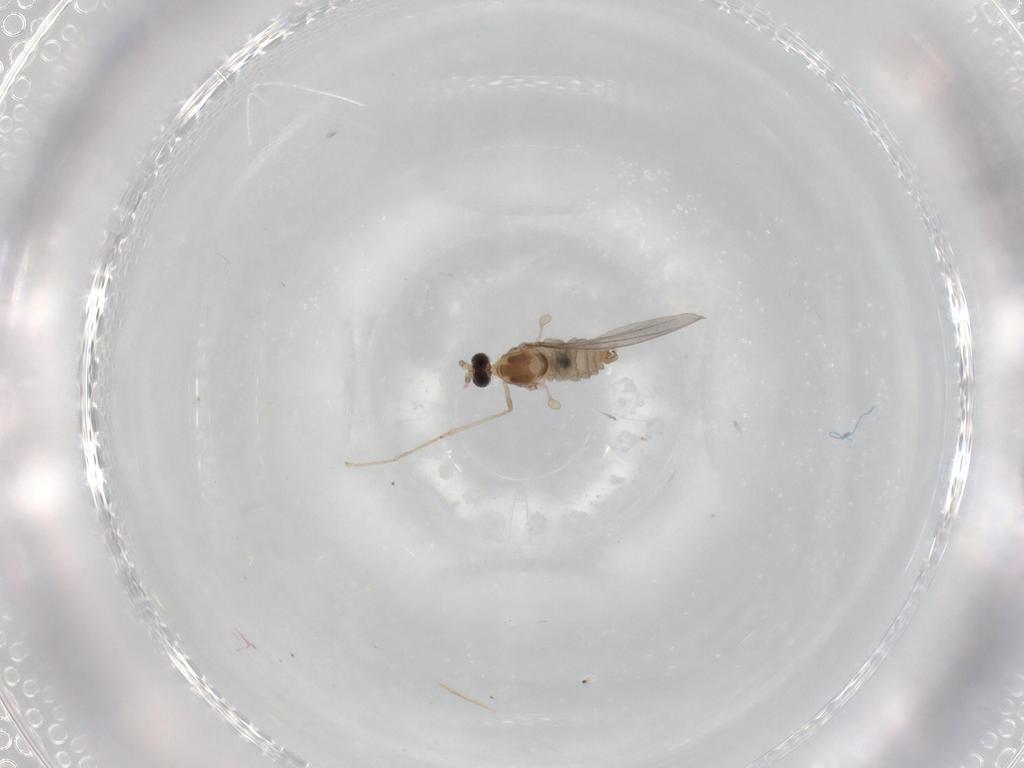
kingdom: Animalia
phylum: Arthropoda
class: Insecta
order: Diptera
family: Cecidomyiidae
